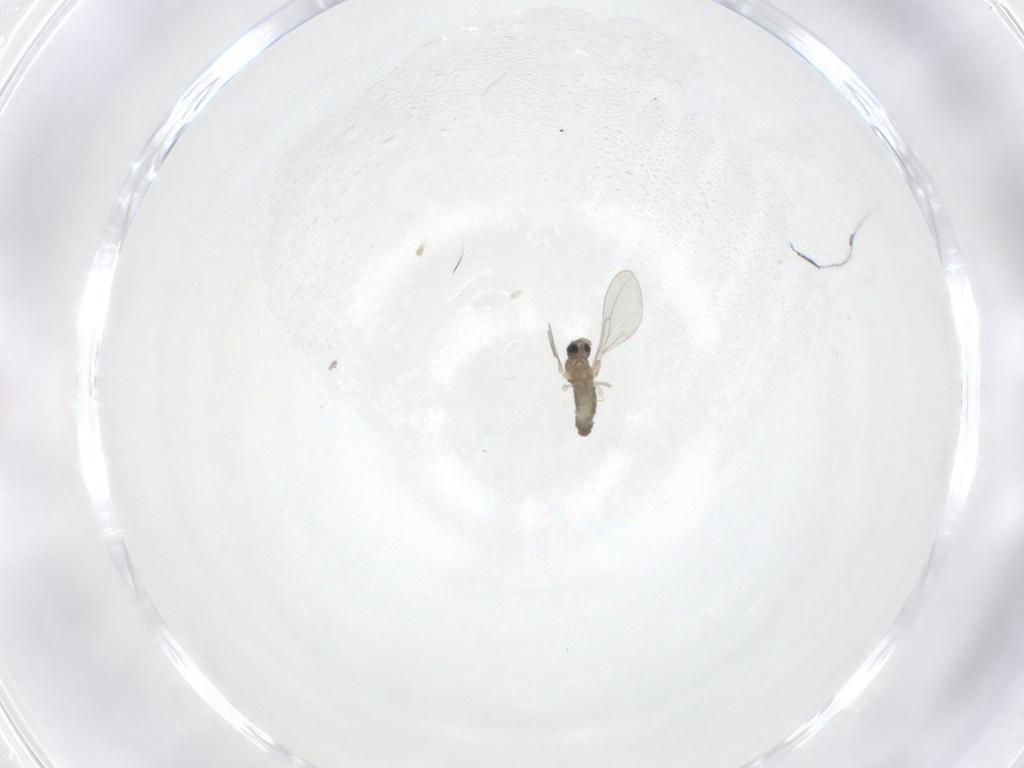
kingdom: Animalia
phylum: Arthropoda
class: Insecta
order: Diptera
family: Cecidomyiidae
